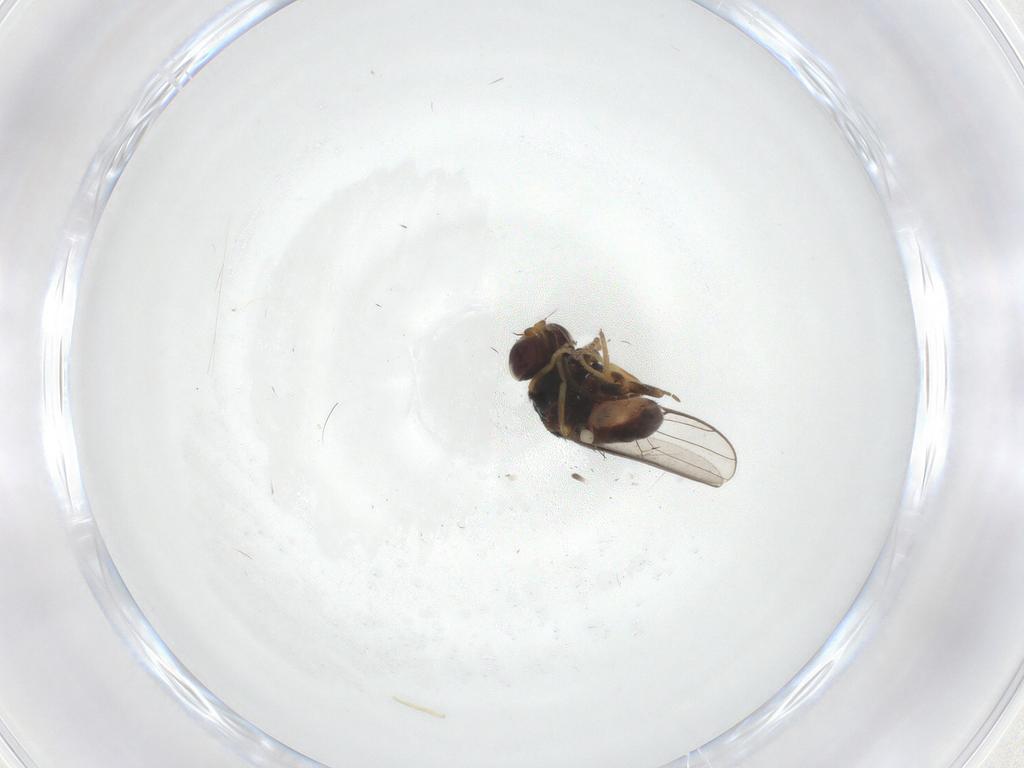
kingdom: Animalia
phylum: Arthropoda
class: Insecta
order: Diptera
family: Chloropidae
